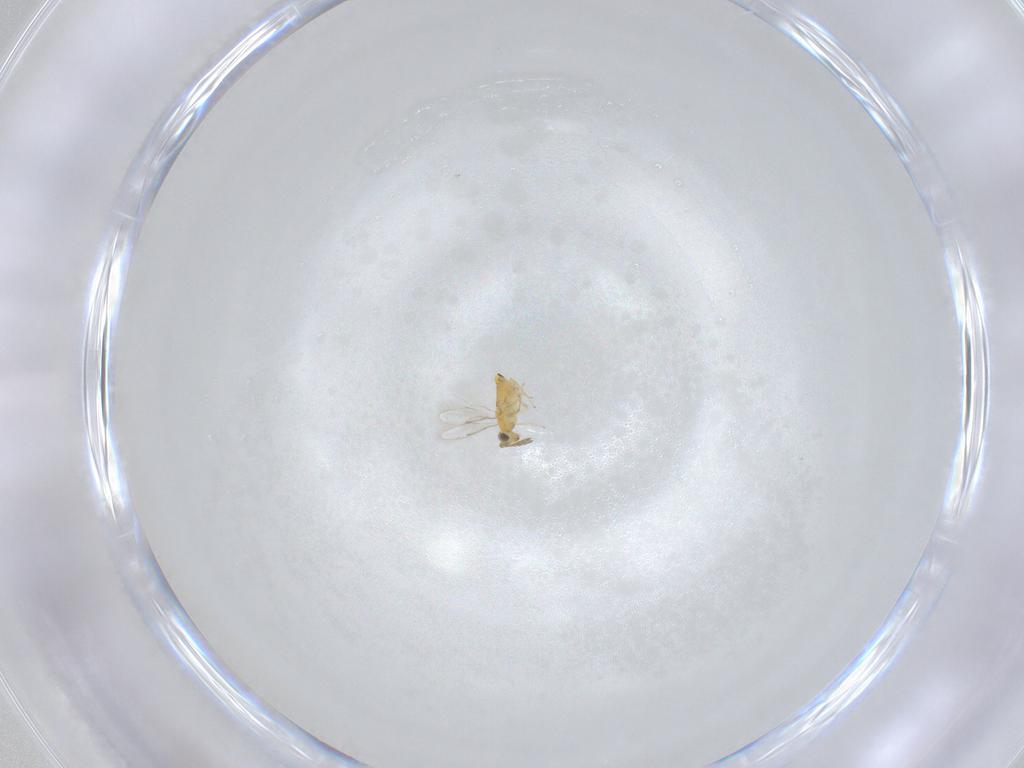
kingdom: Animalia
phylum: Arthropoda
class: Insecta
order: Hymenoptera
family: Aphelinidae
